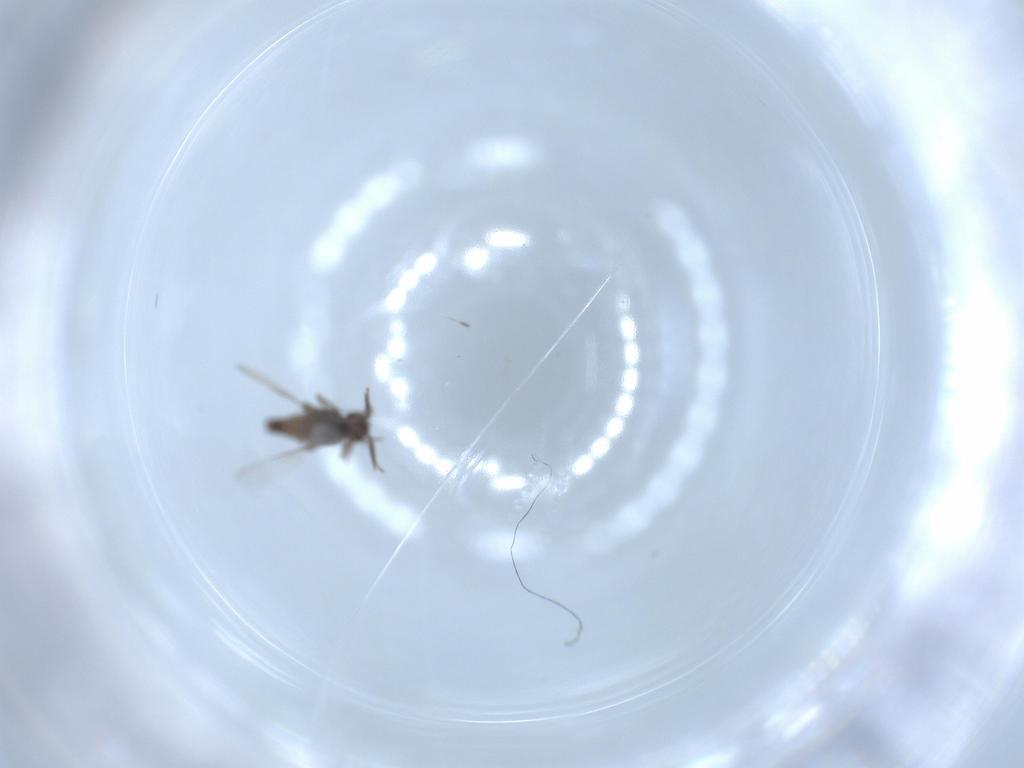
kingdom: Animalia
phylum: Arthropoda
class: Insecta
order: Diptera
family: Ceratopogonidae
